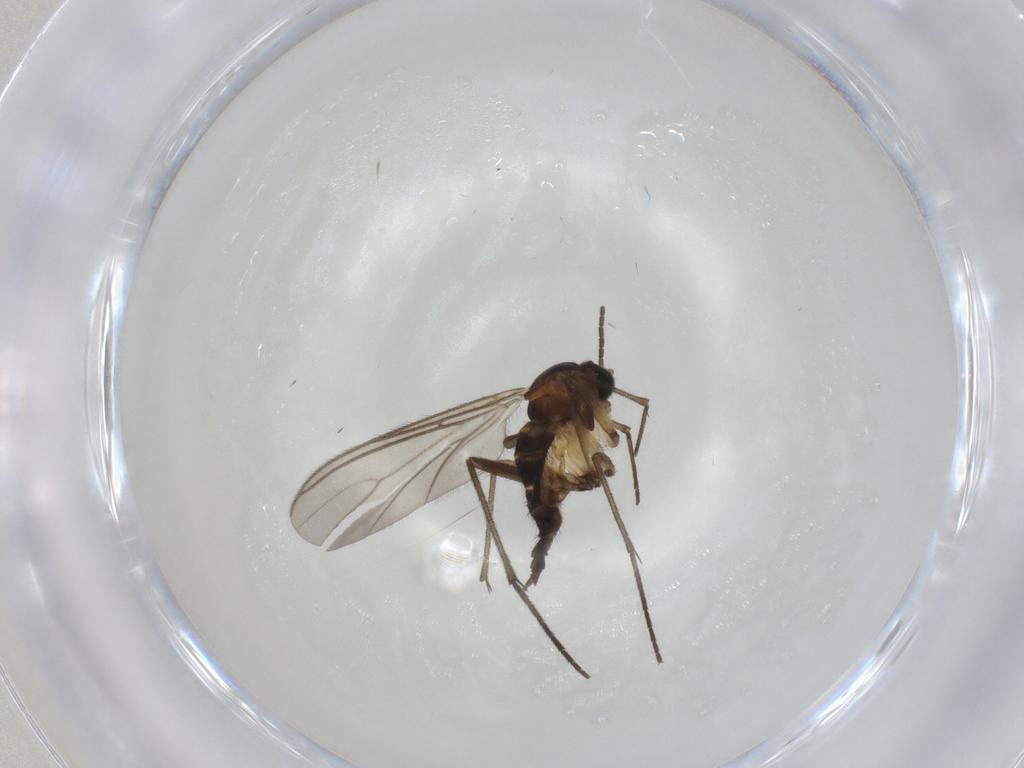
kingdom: Animalia
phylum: Arthropoda
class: Insecta
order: Diptera
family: Sciaridae
